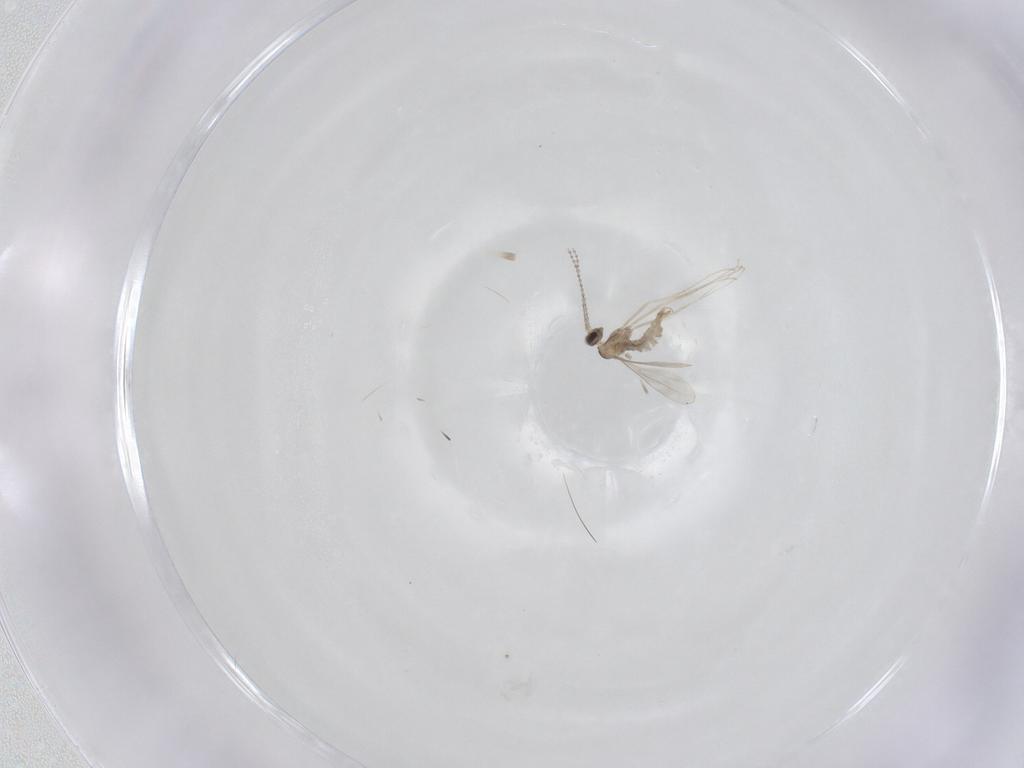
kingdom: Animalia
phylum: Arthropoda
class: Insecta
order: Diptera
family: Cecidomyiidae
